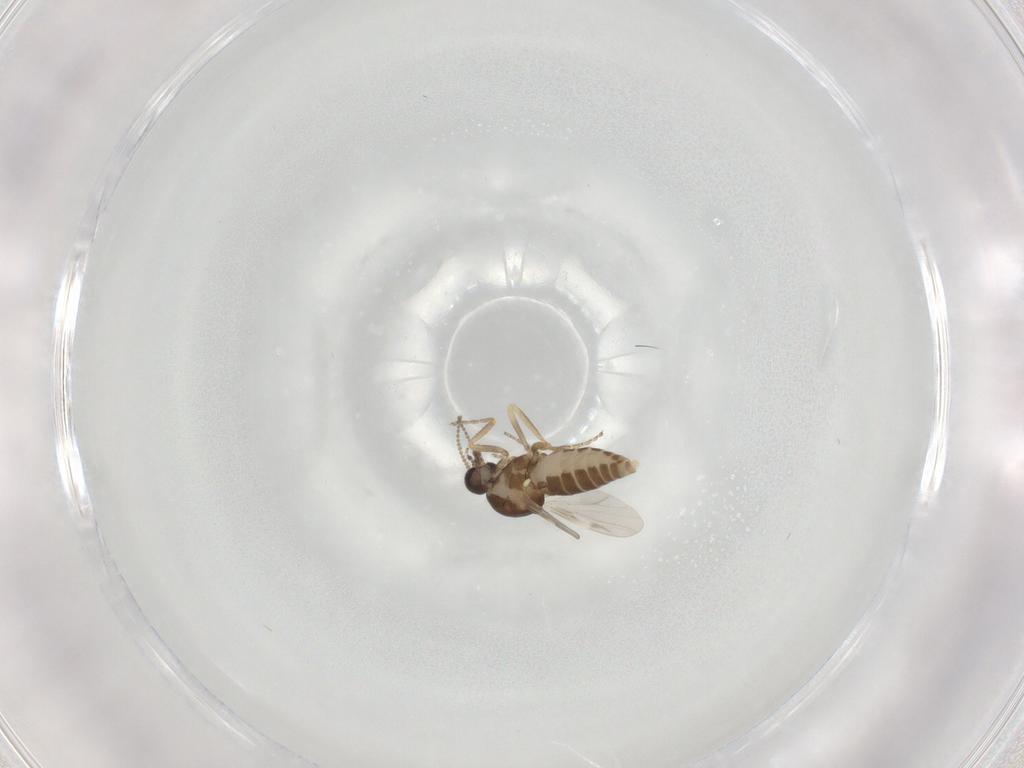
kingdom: Animalia
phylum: Arthropoda
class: Insecta
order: Diptera
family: Ceratopogonidae
